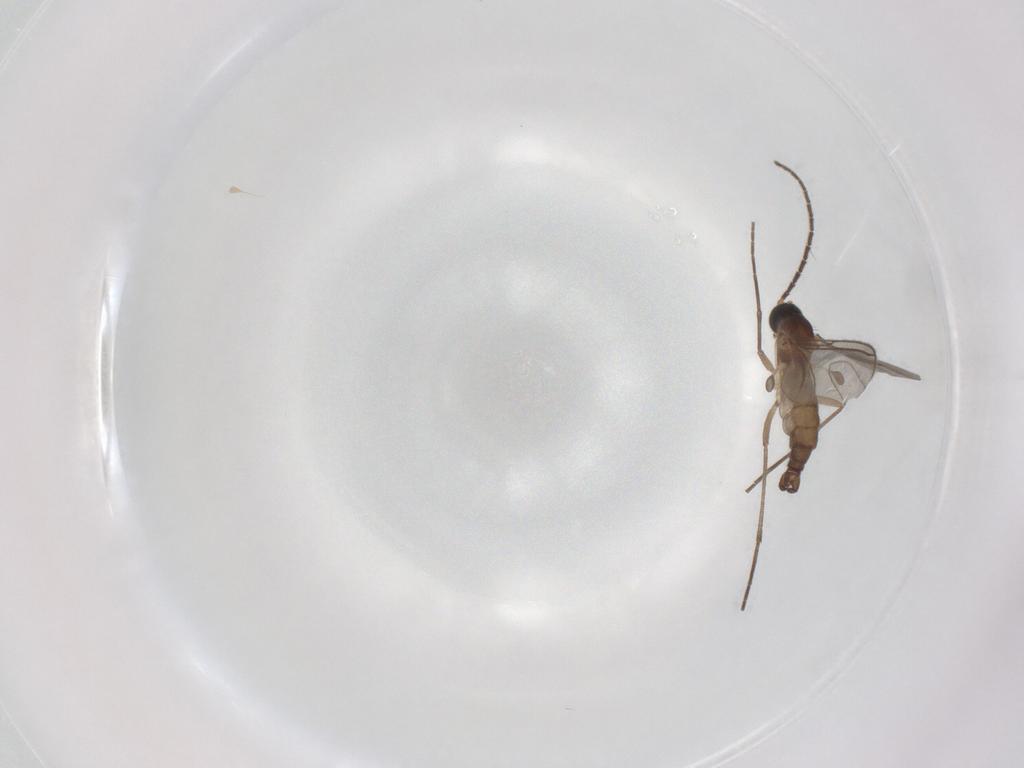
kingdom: Animalia
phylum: Arthropoda
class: Insecta
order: Diptera
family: Sciaridae
